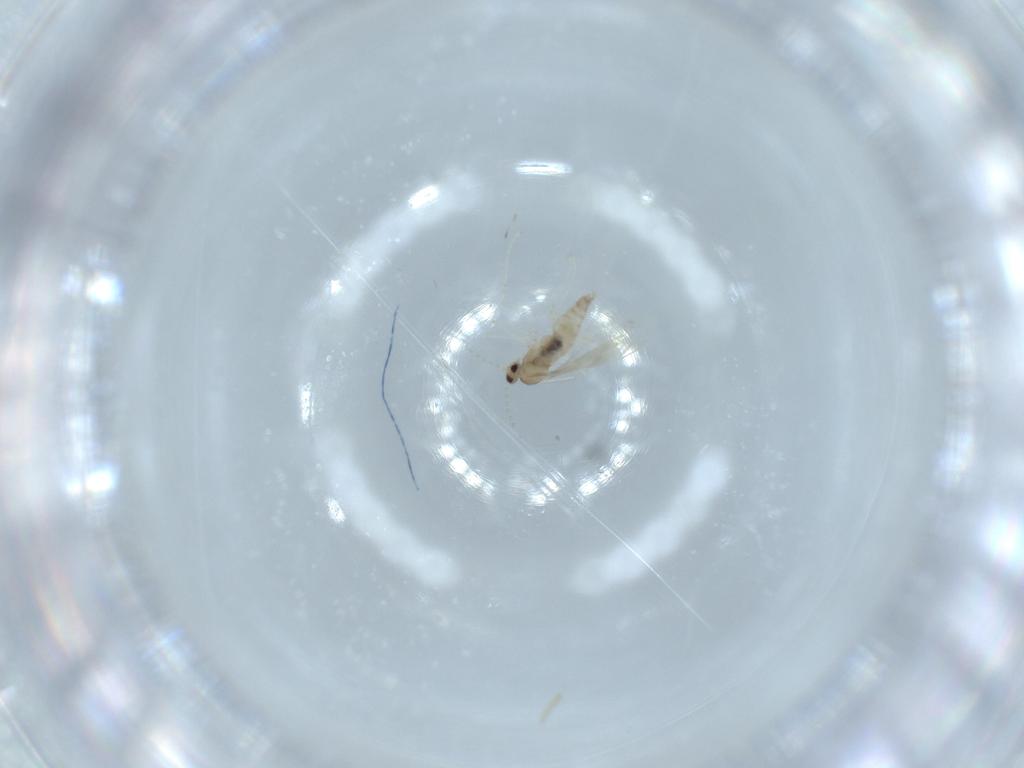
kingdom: Animalia
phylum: Arthropoda
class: Insecta
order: Diptera
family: Cecidomyiidae
